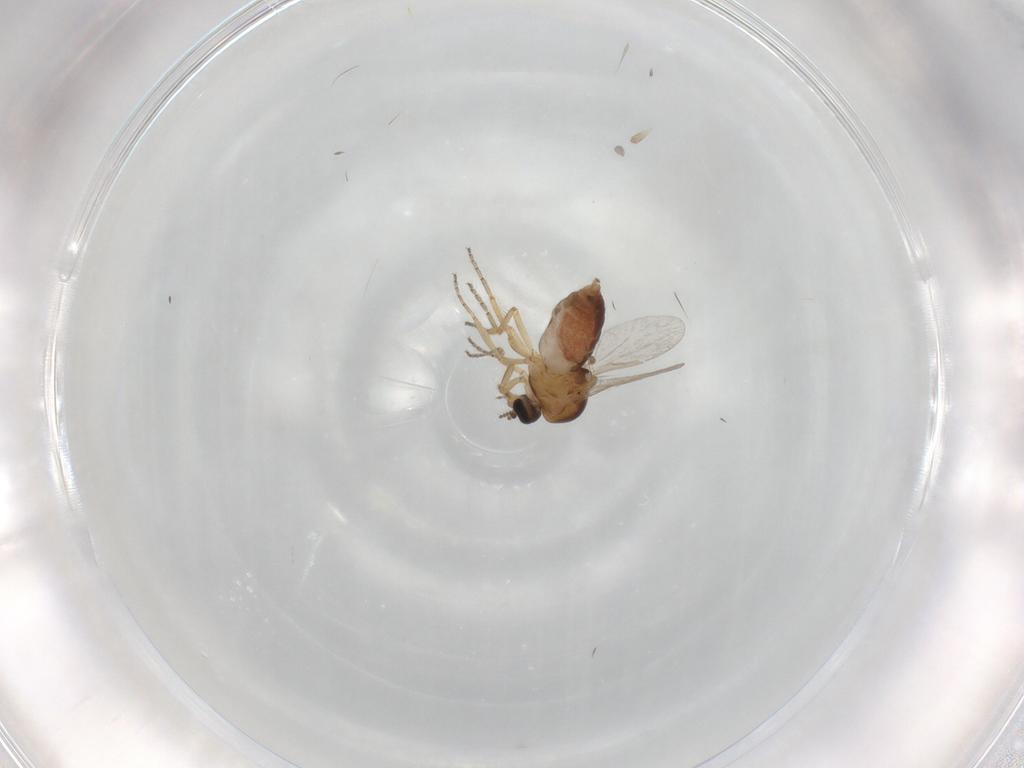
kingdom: Animalia
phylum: Arthropoda
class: Insecta
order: Diptera
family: Ceratopogonidae
